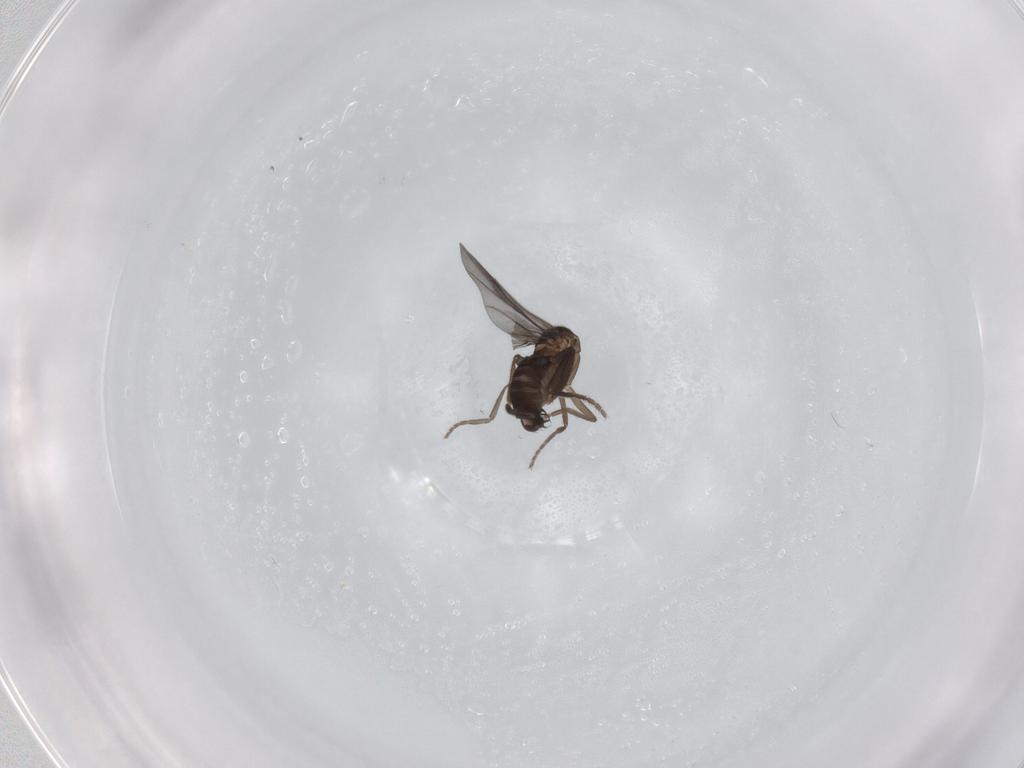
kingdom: Animalia
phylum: Arthropoda
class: Insecta
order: Diptera
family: Phoridae
